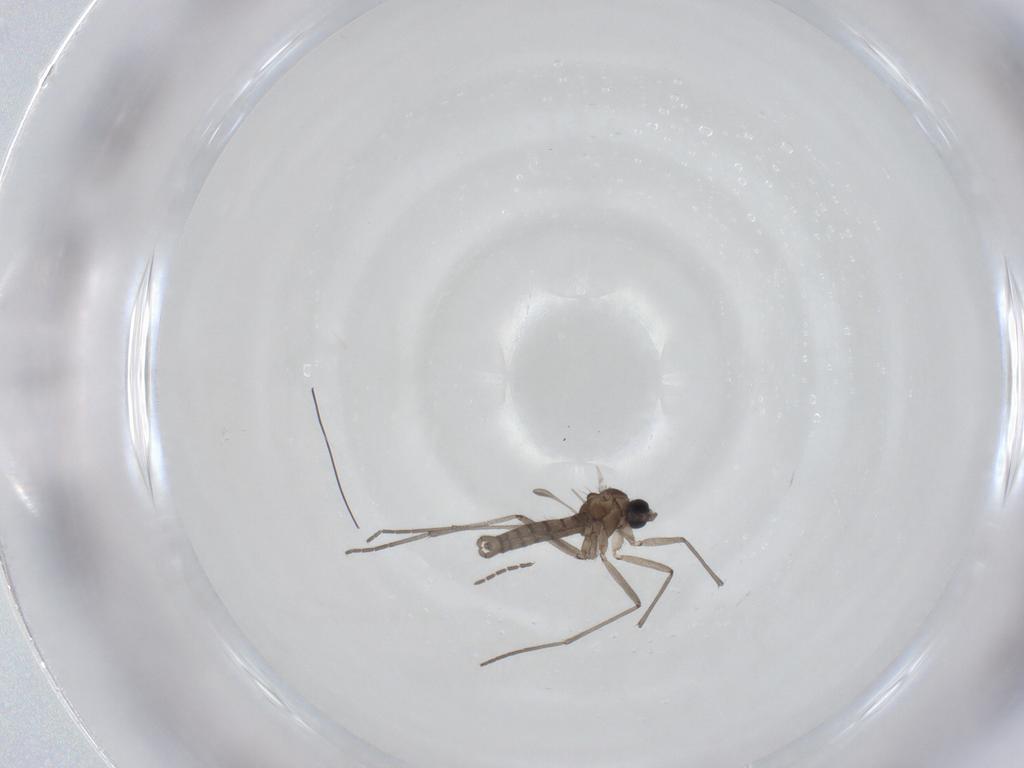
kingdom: Animalia
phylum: Arthropoda
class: Insecta
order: Diptera
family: Sciaridae
